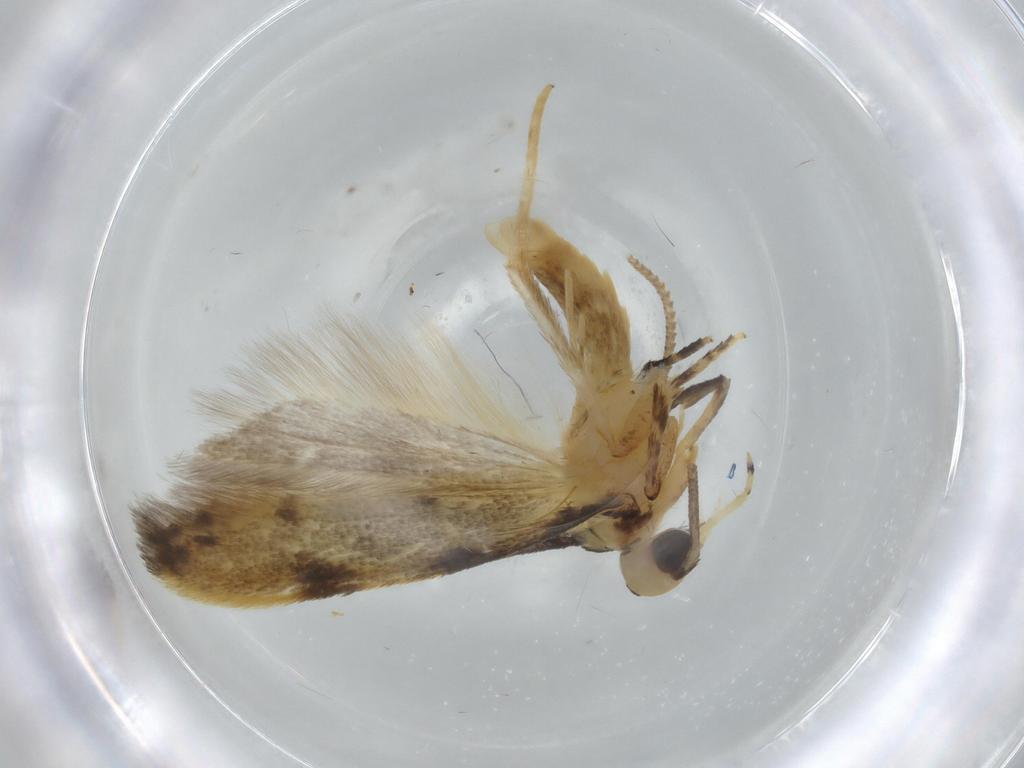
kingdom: Animalia
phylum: Arthropoda
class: Insecta
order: Lepidoptera
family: Autostichidae
